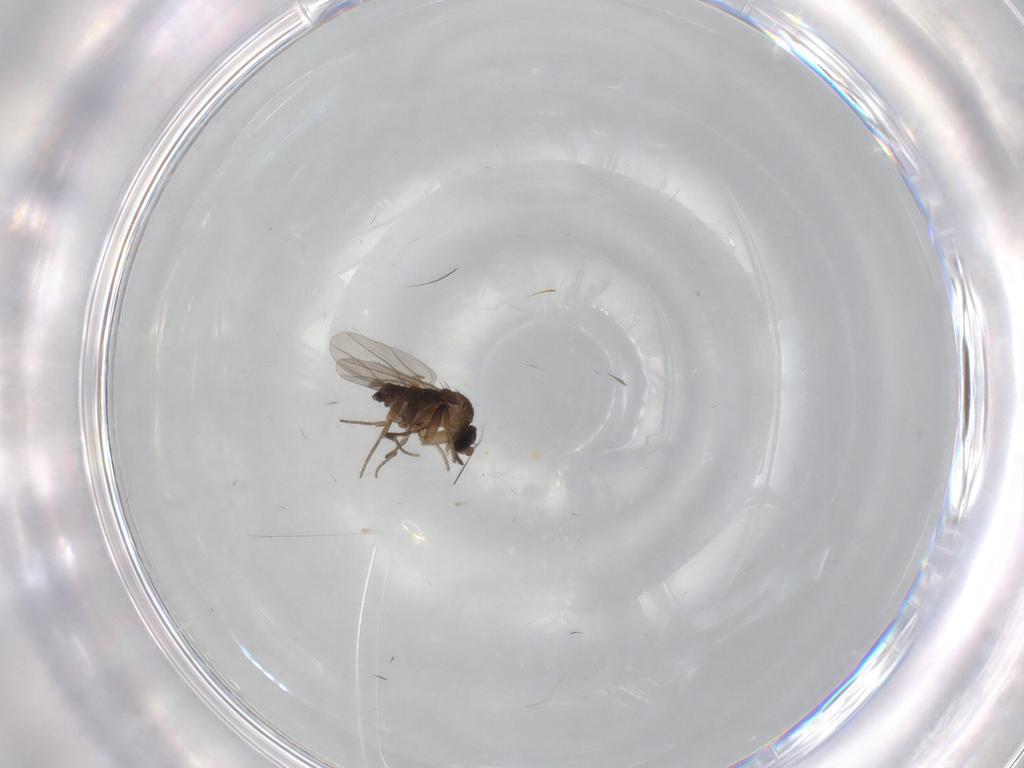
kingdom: Animalia
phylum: Arthropoda
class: Insecta
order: Diptera
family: Phoridae
